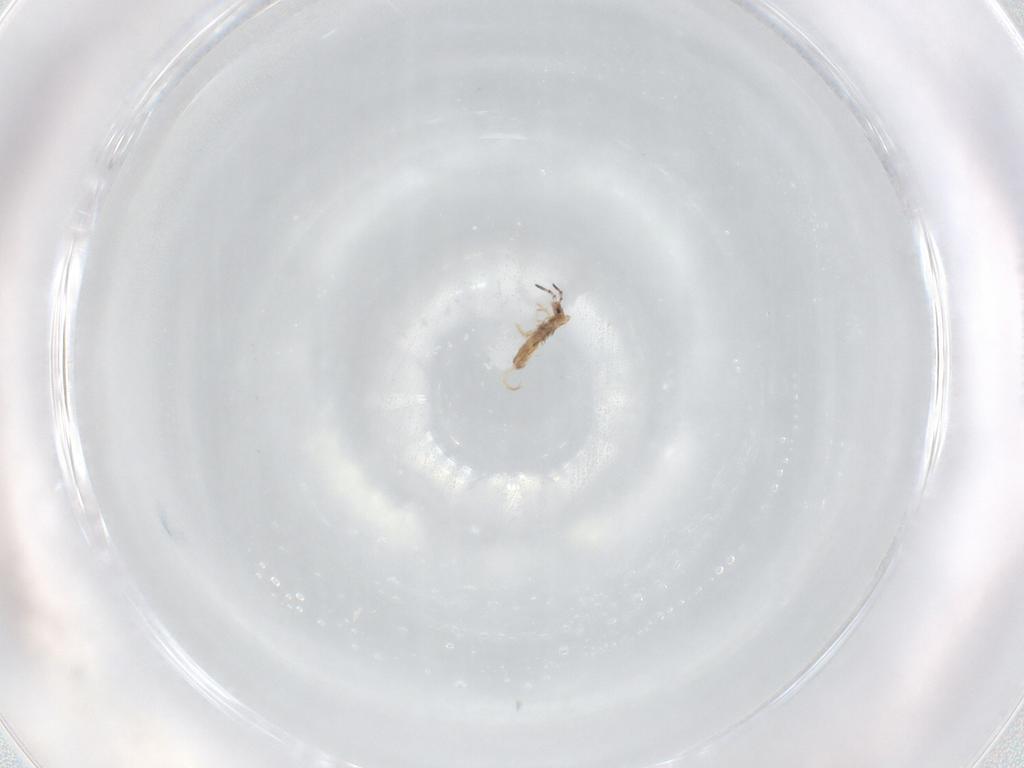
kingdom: Animalia
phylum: Arthropoda
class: Collembola
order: Entomobryomorpha
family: Entomobryidae
